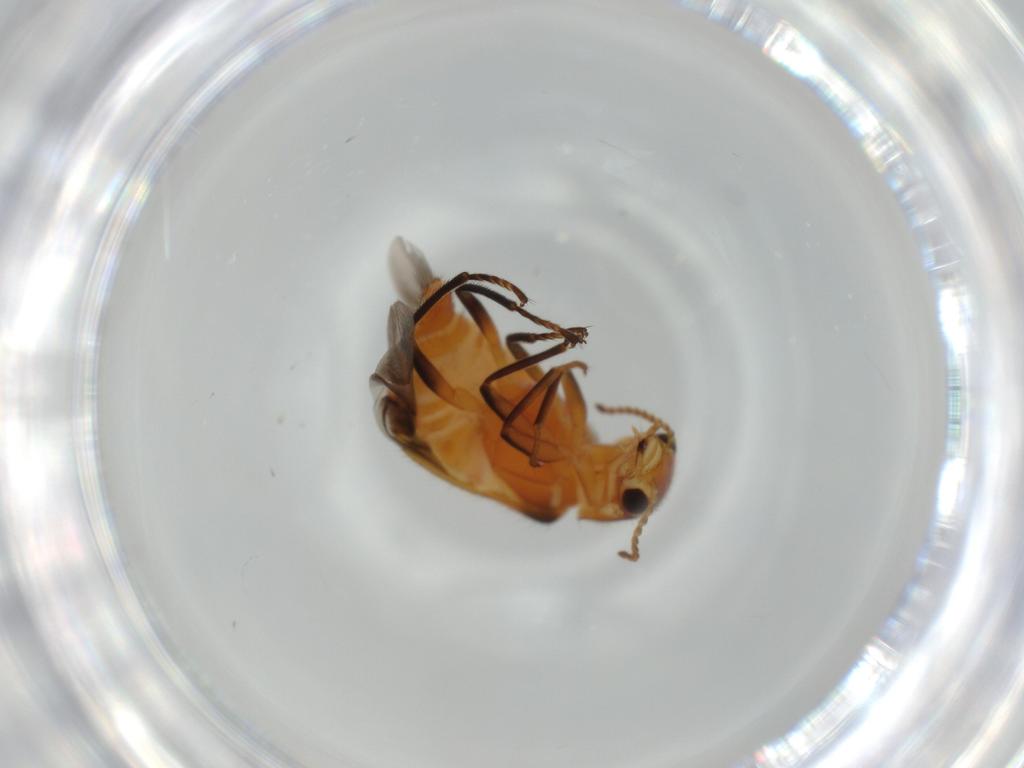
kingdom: Animalia
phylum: Arthropoda
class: Insecta
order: Coleoptera
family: Melyridae
